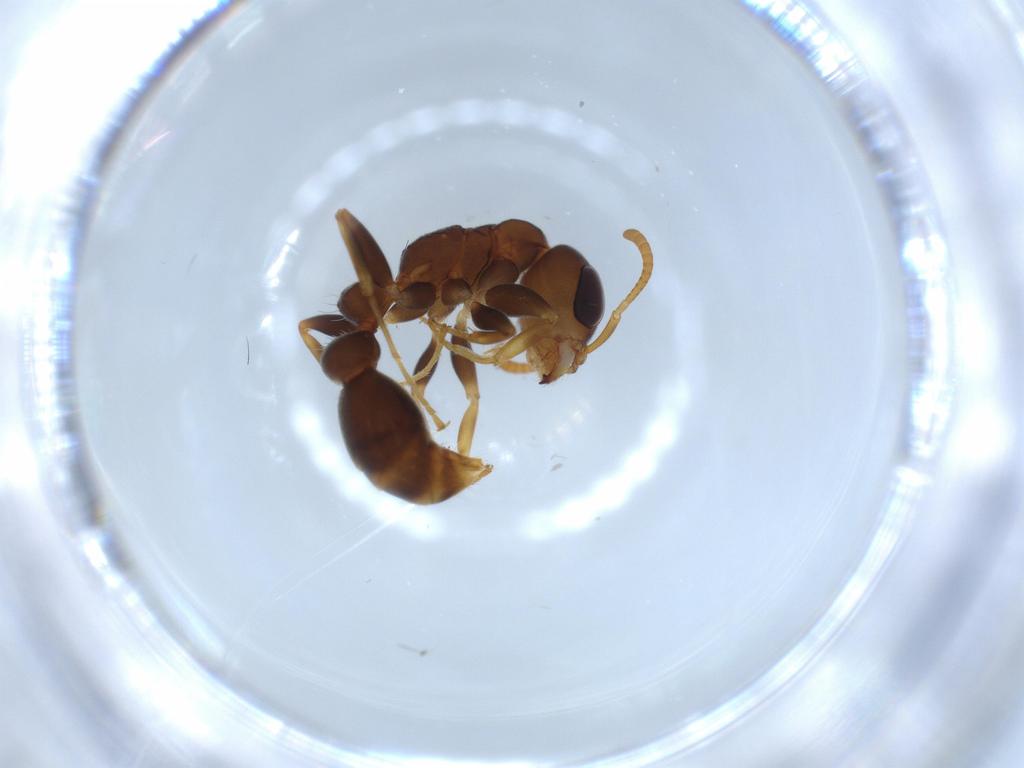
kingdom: Animalia
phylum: Arthropoda
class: Insecta
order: Hymenoptera
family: Formicidae
